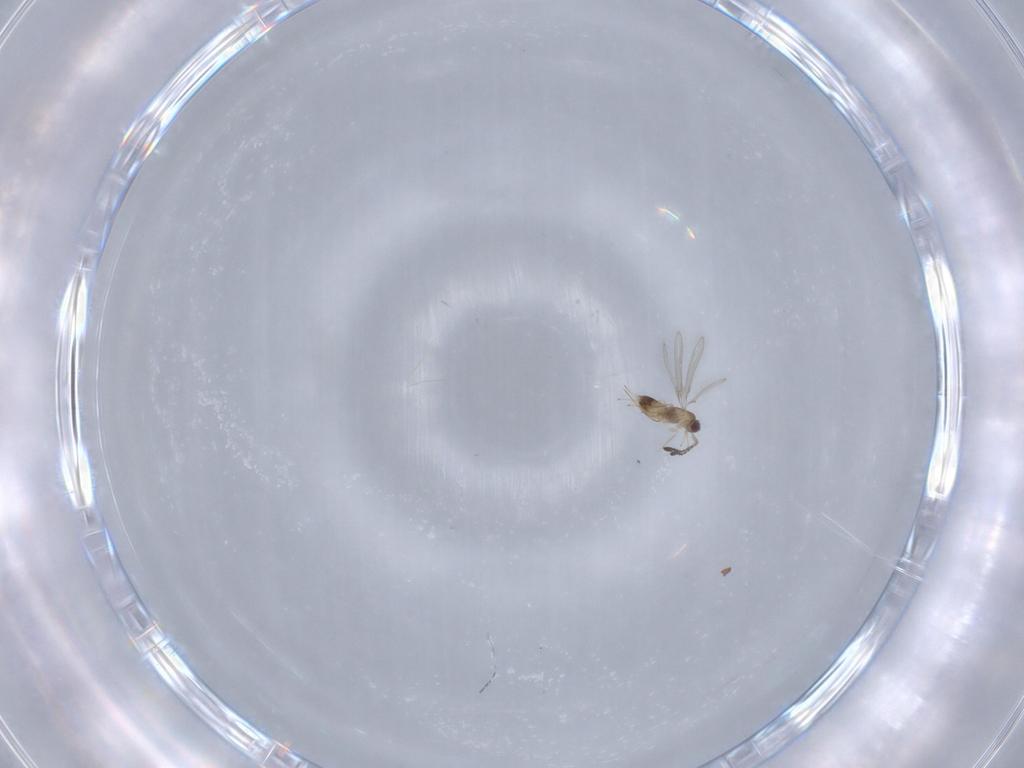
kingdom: Animalia
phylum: Arthropoda
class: Insecta
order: Hymenoptera
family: Mymaridae
